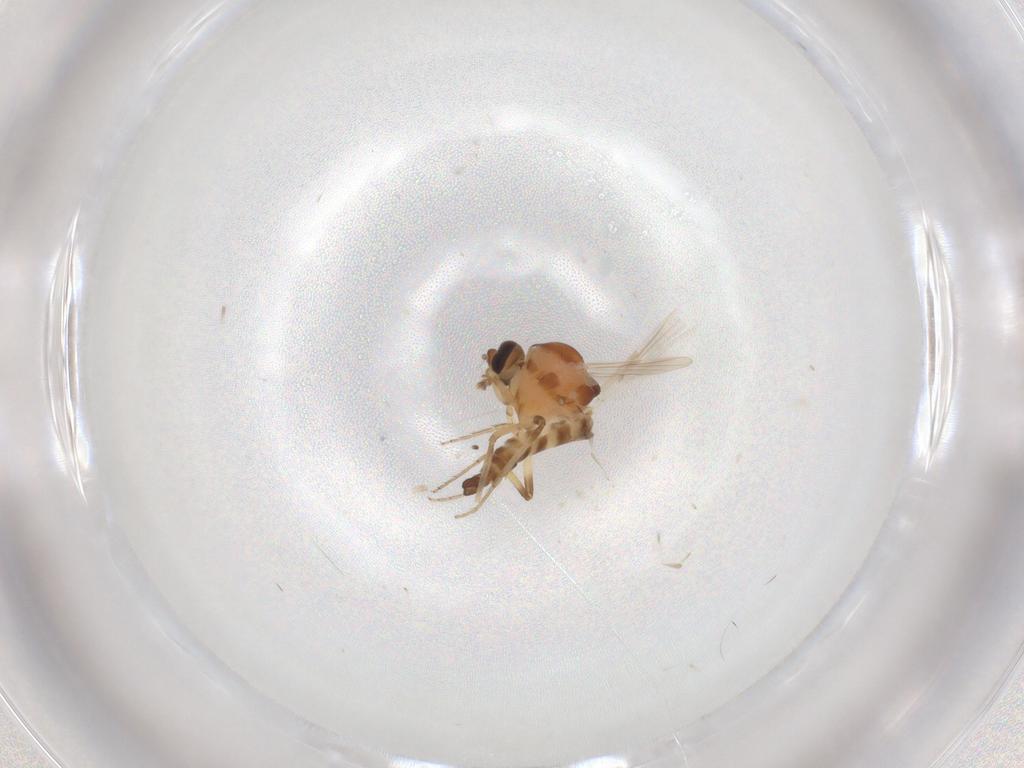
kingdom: Animalia
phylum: Arthropoda
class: Insecta
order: Diptera
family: Ceratopogonidae
